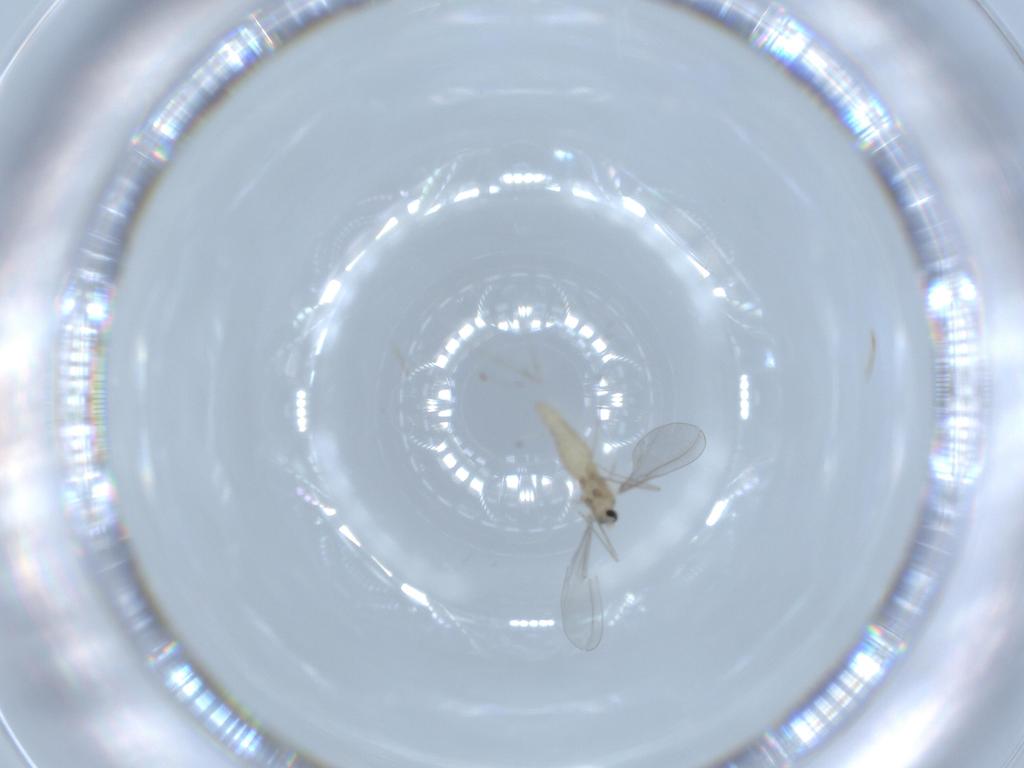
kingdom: Animalia
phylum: Arthropoda
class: Insecta
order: Diptera
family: Cecidomyiidae
